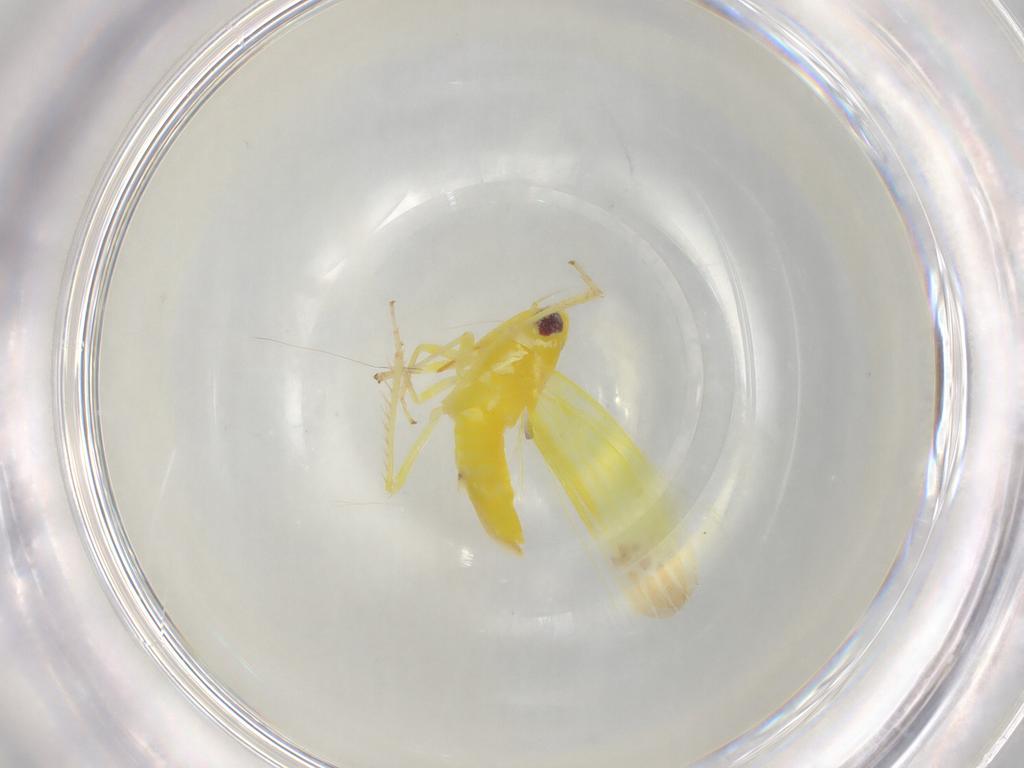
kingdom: Animalia
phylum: Arthropoda
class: Insecta
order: Hemiptera
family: Cicadellidae
